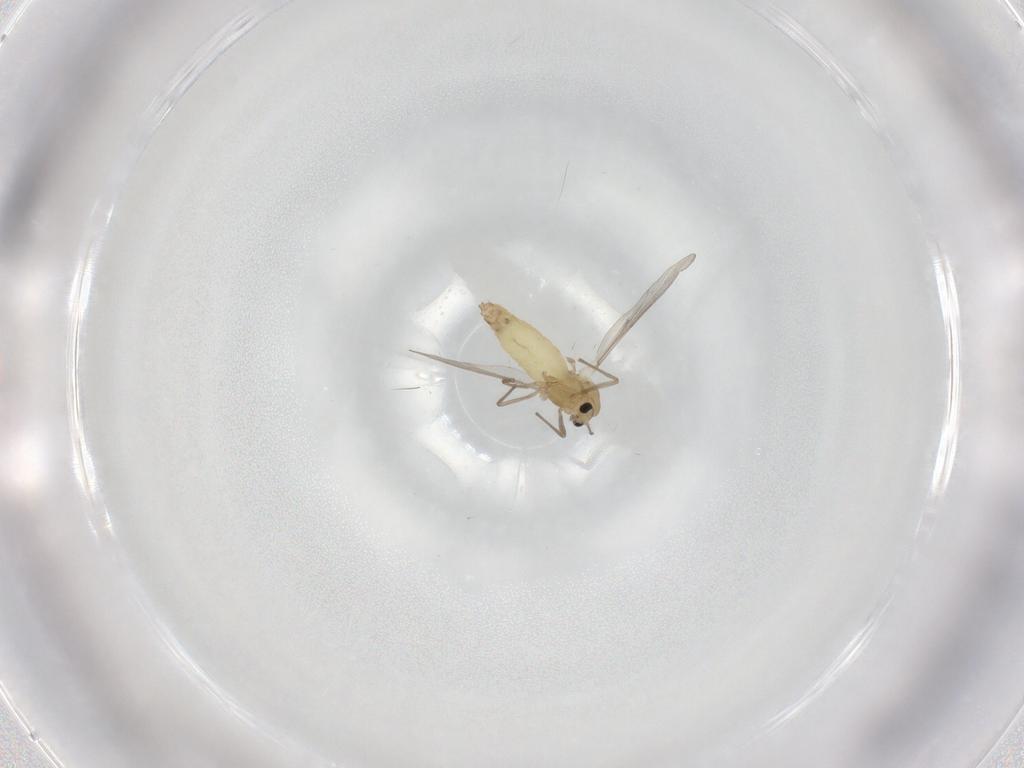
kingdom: Animalia
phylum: Arthropoda
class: Insecta
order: Diptera
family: Chironomidae
